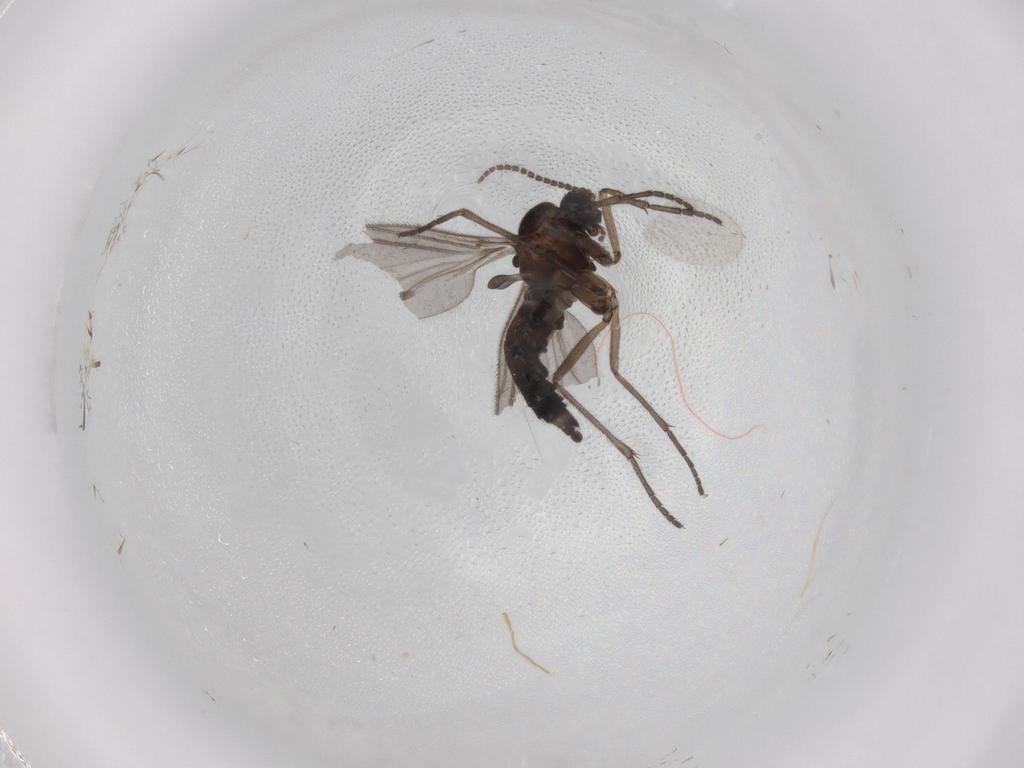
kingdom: Animalia
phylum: Arthropoda
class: Insecta
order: Diptera
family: Sciaridae
